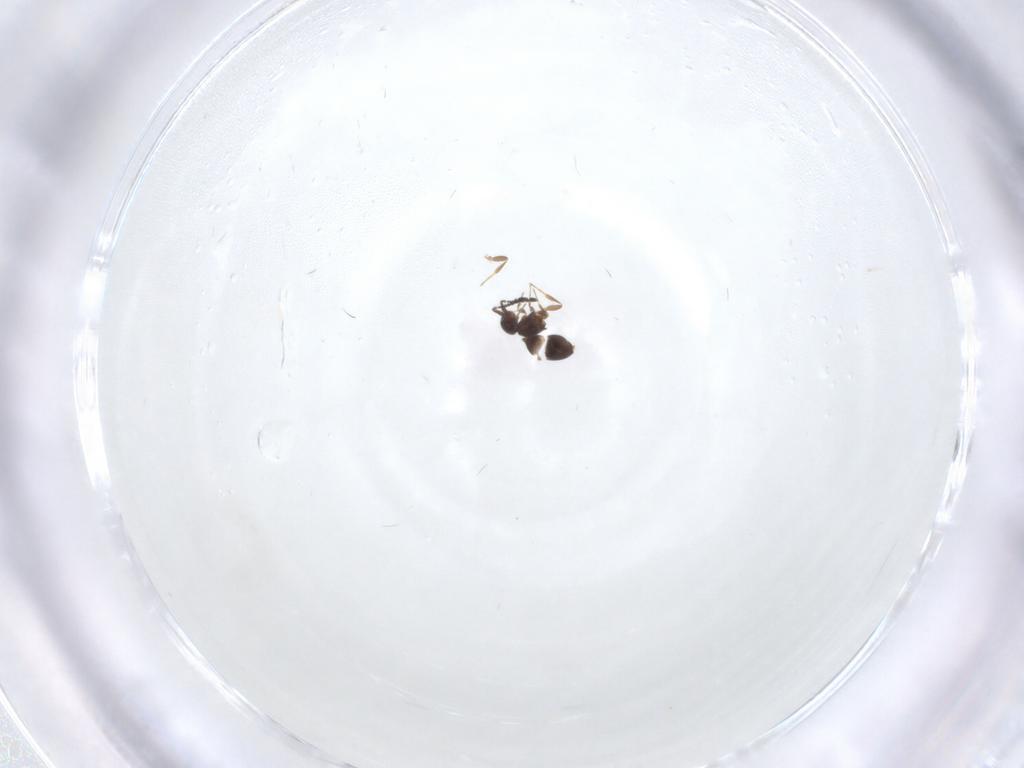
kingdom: Animalia
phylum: Arthropoda
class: Insecta
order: Hymenoptera
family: Ceraphronidae
